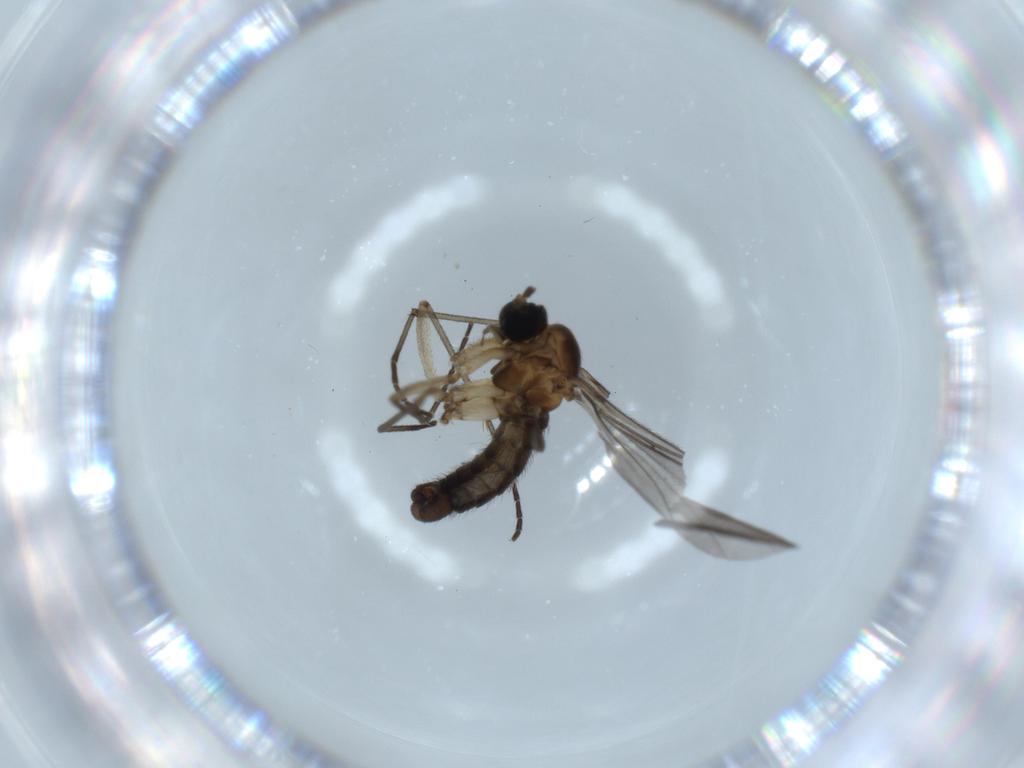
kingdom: Animalia
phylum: Arthropoda
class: Insecta
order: Diptera
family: Sciaridae
